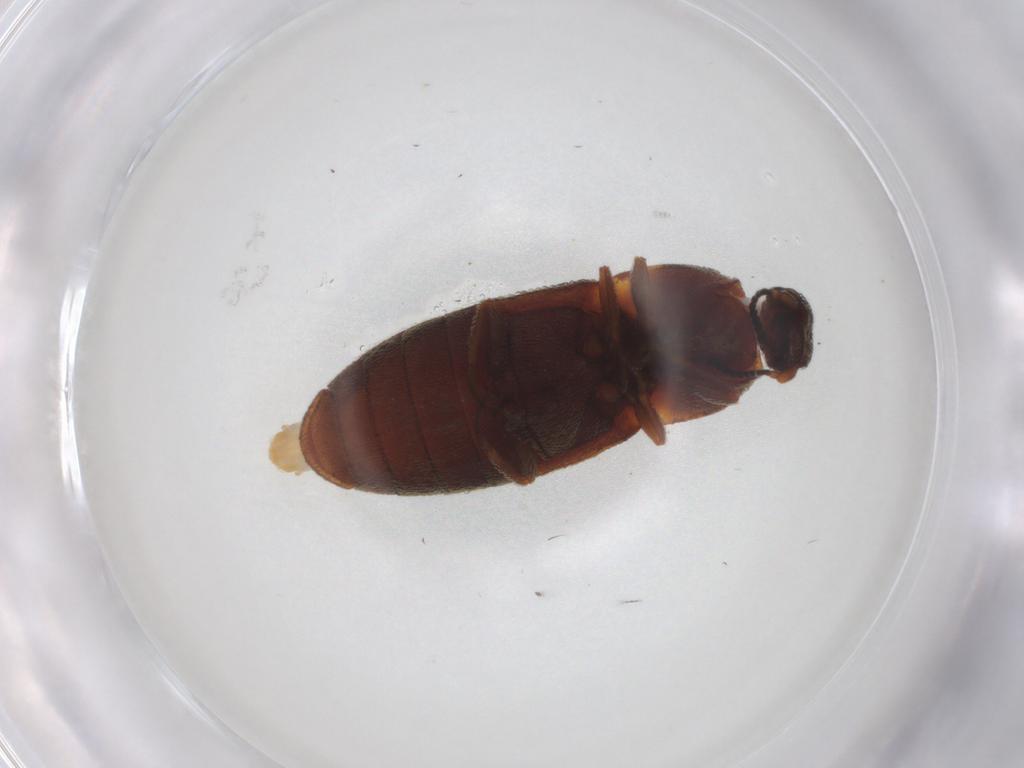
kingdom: Animalia
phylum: Arthropoda
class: Insecta
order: Coleoptera
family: Elateridae
